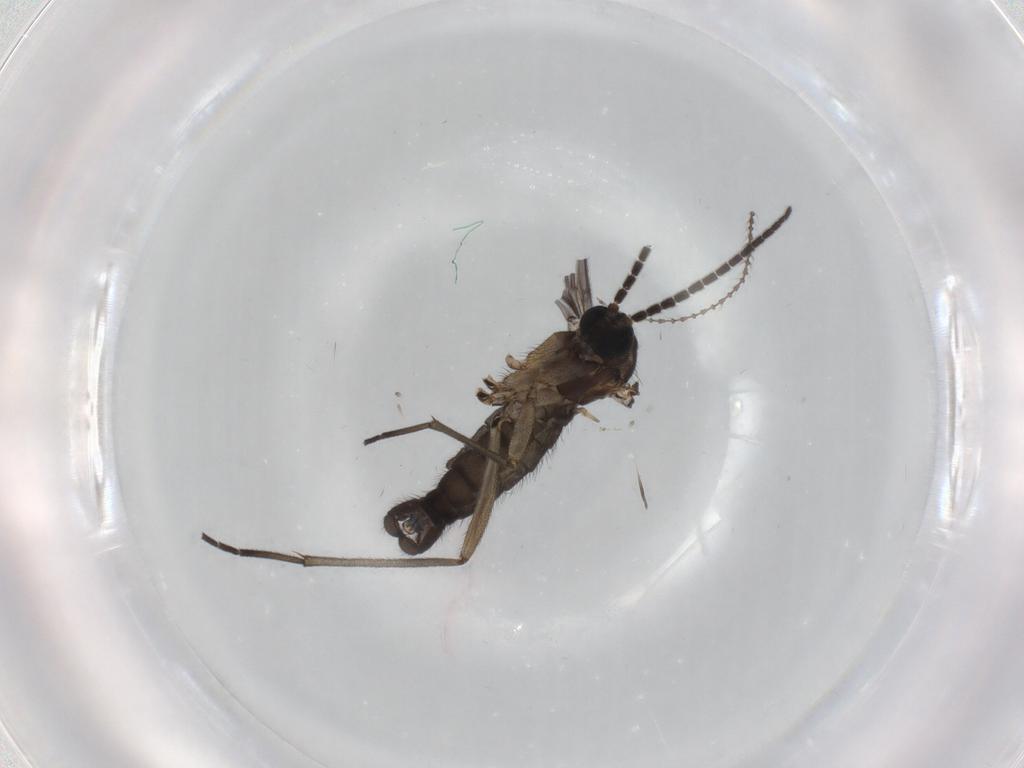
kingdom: Animalia
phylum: Arthropoda
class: Insecta
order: Diptera
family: Sciaridae
